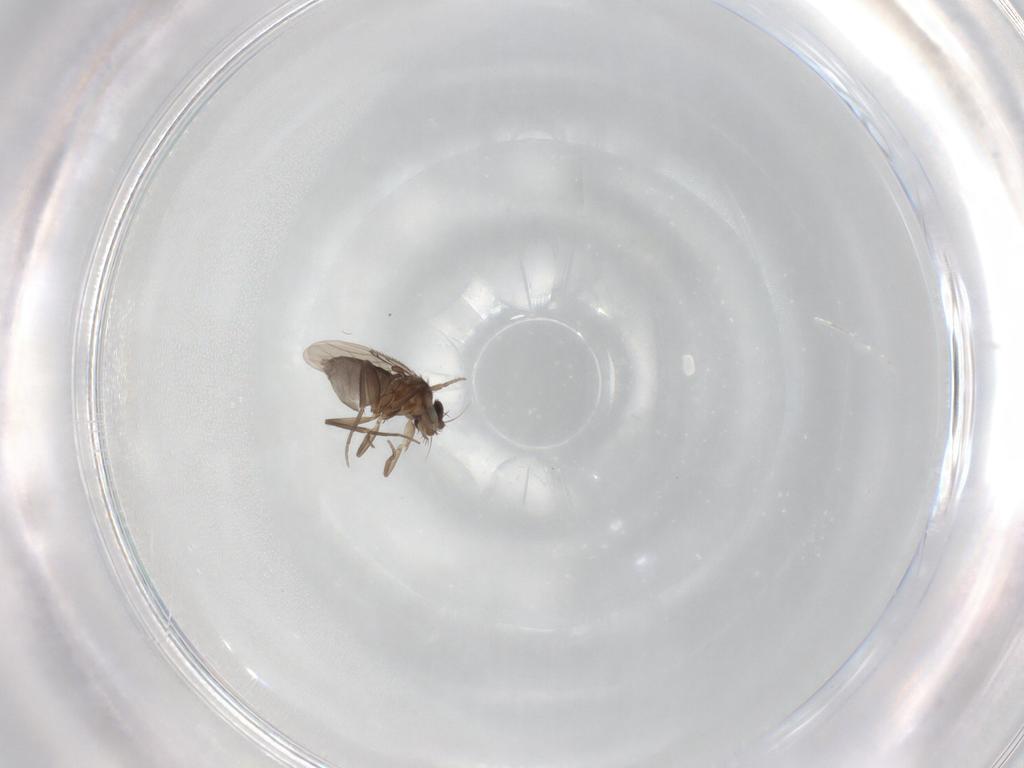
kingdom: Animalia
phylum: Arthropoda
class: Insecta
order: Diptera
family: Phoridae
